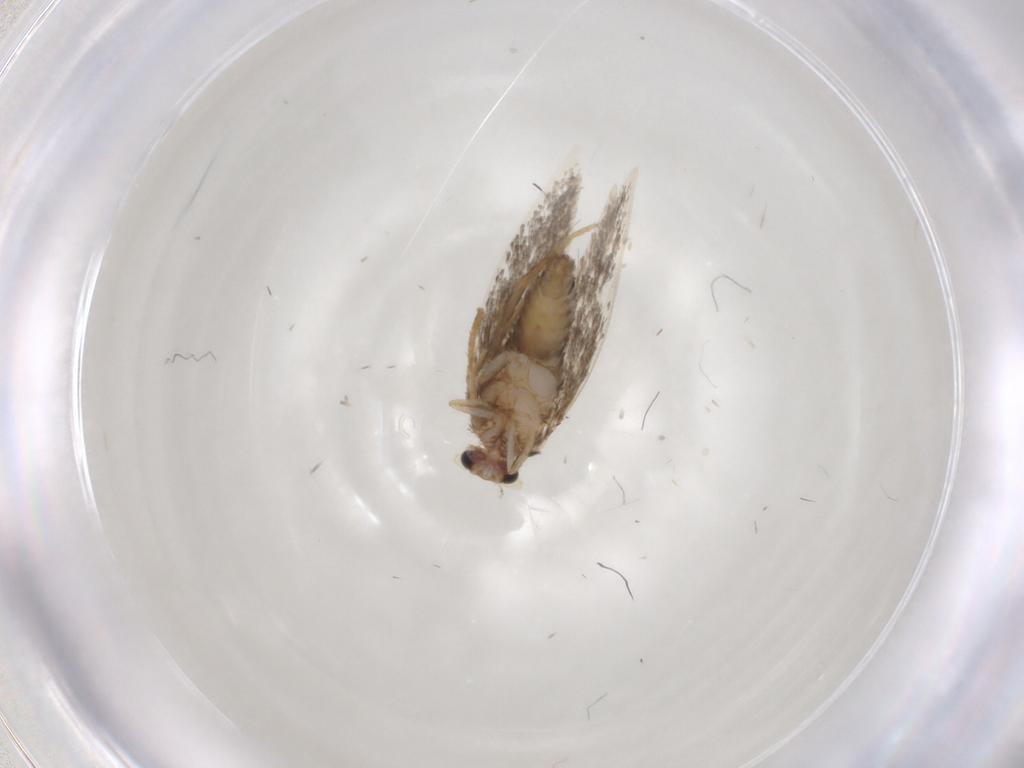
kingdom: Animalia
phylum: Arthropoda
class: Insecta
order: Lepidoptera
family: Nepticulidae
